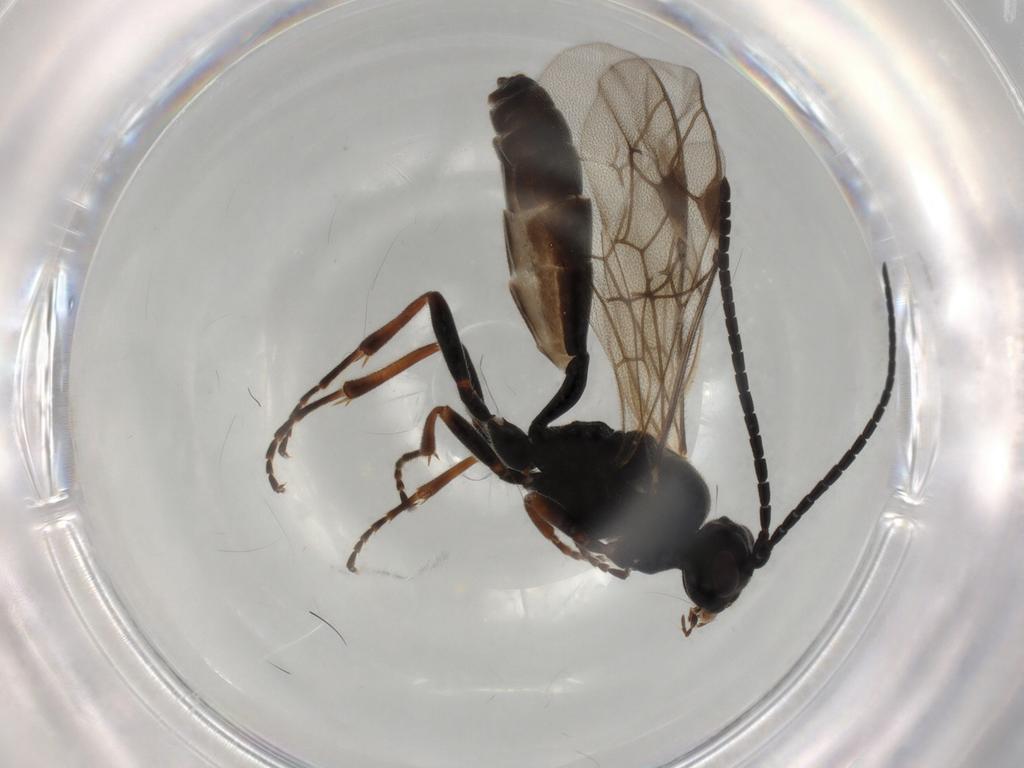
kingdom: Animalia
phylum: Arthropoda
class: Insecta
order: Hymenoptera
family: Ichneumonidae
